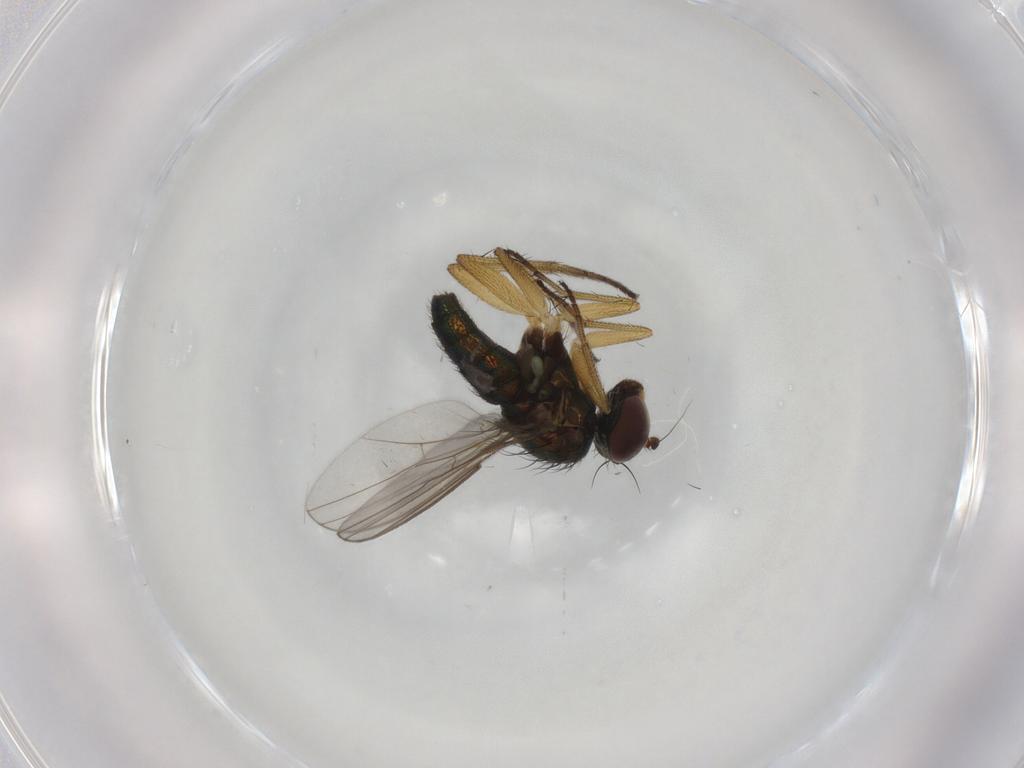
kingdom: Animalia
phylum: Arthropoda
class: Insecta
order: Diptera
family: Dolichopodidae
